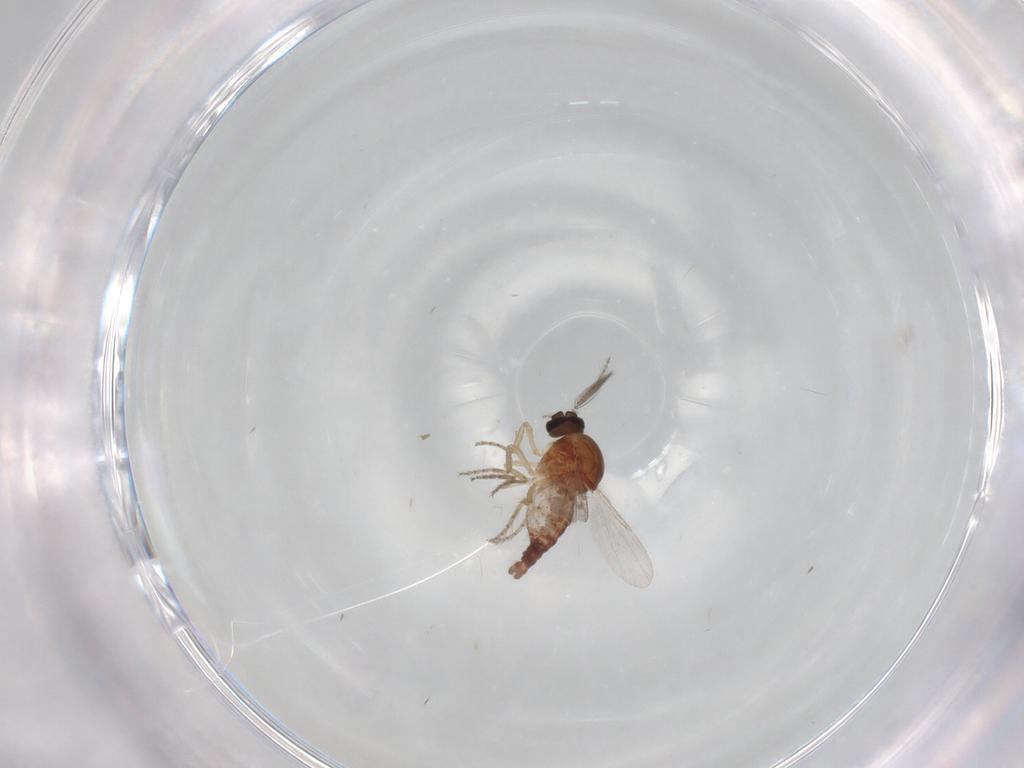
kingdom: Animalia
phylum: Arthropoda
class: Insecta
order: Diptera
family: Ceratopogonidae
